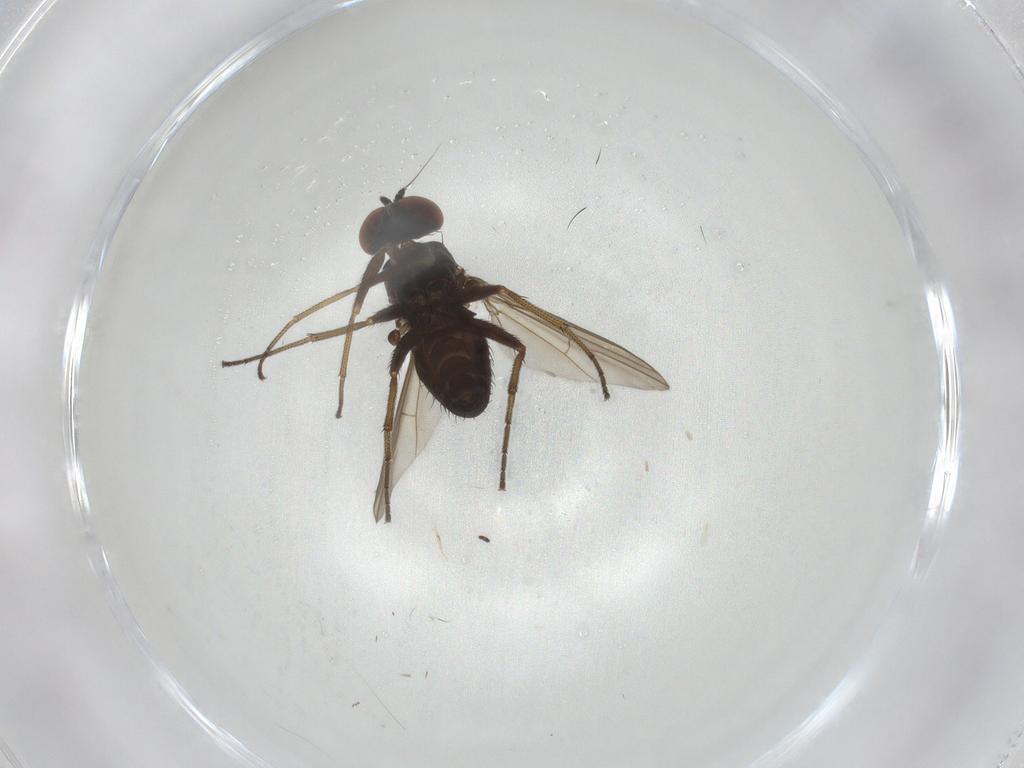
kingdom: Animalia
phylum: Arthropoda
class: Insecta
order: Diptera
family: Dolichopodidae
